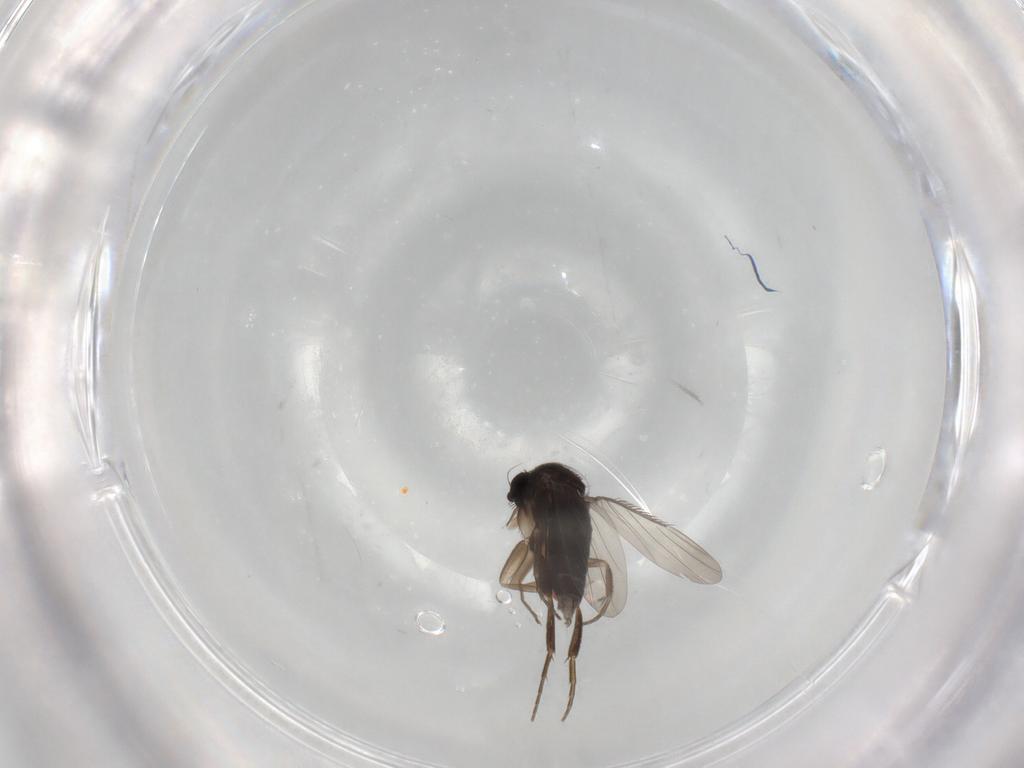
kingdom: Animalia
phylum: Arthropoda
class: Insecta
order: Diptera
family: Phoridae
